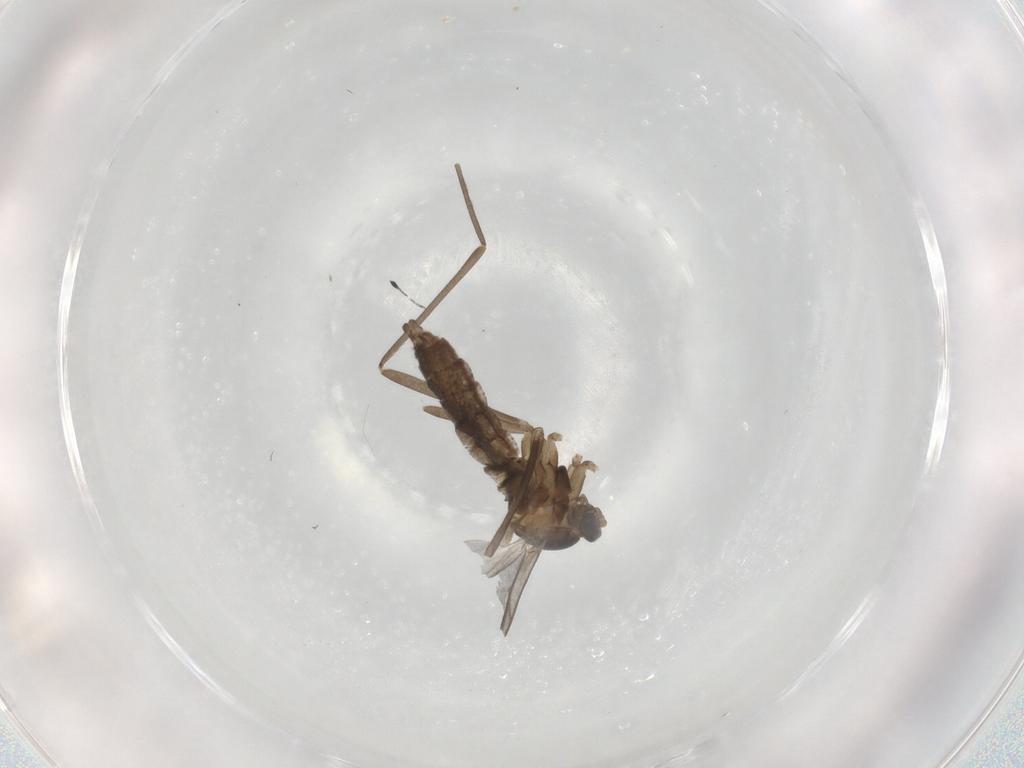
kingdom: Animalia
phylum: Arthropoda
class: Insecta
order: Diptera
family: Cecidomyiidae
